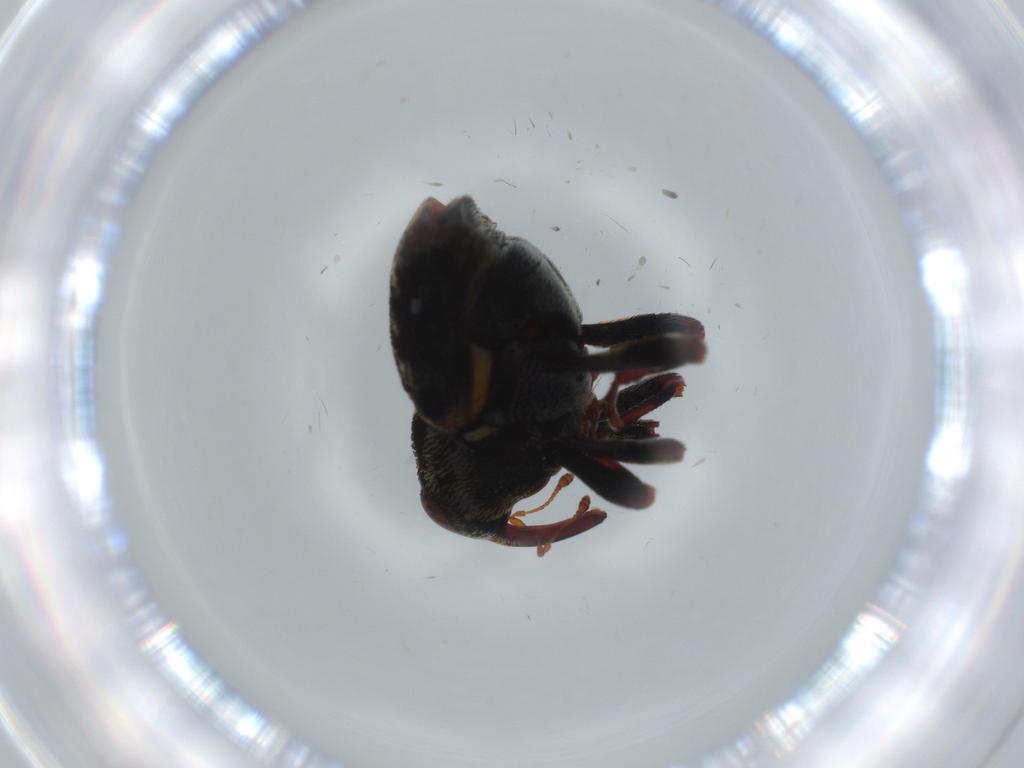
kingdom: Animalia
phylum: Arthropoda
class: Insecta
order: Coleoptera
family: Curculionidae
